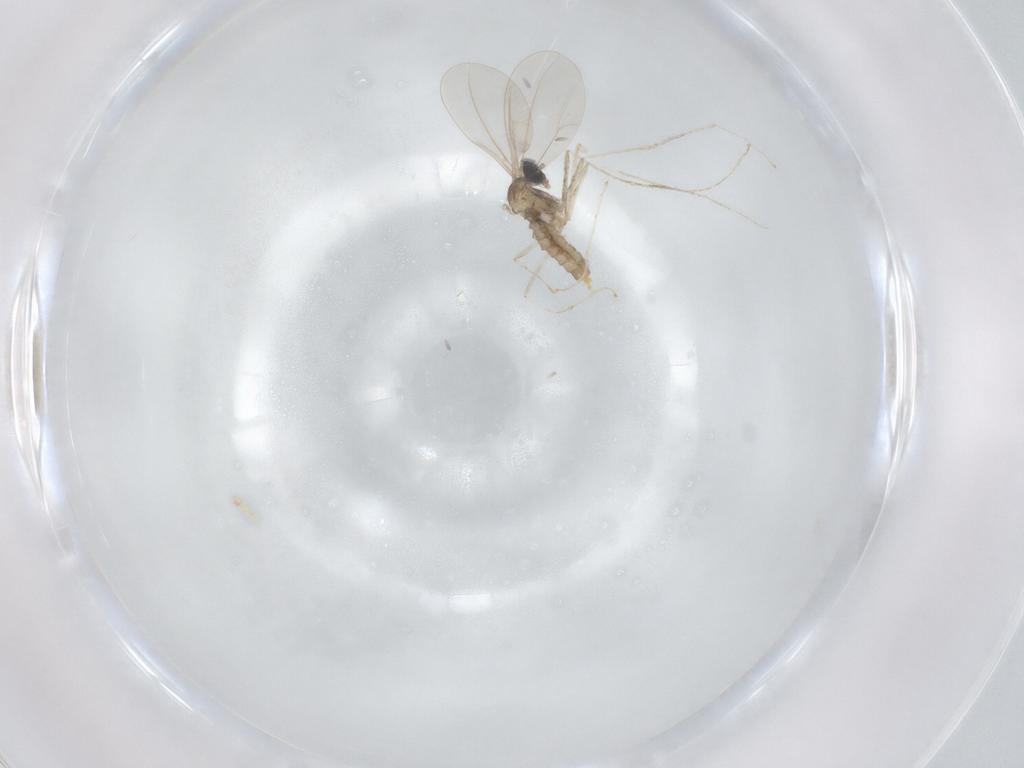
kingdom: Animalia
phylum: Arthropoda
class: Insecta
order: Diptera
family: Cecidomyiidae
